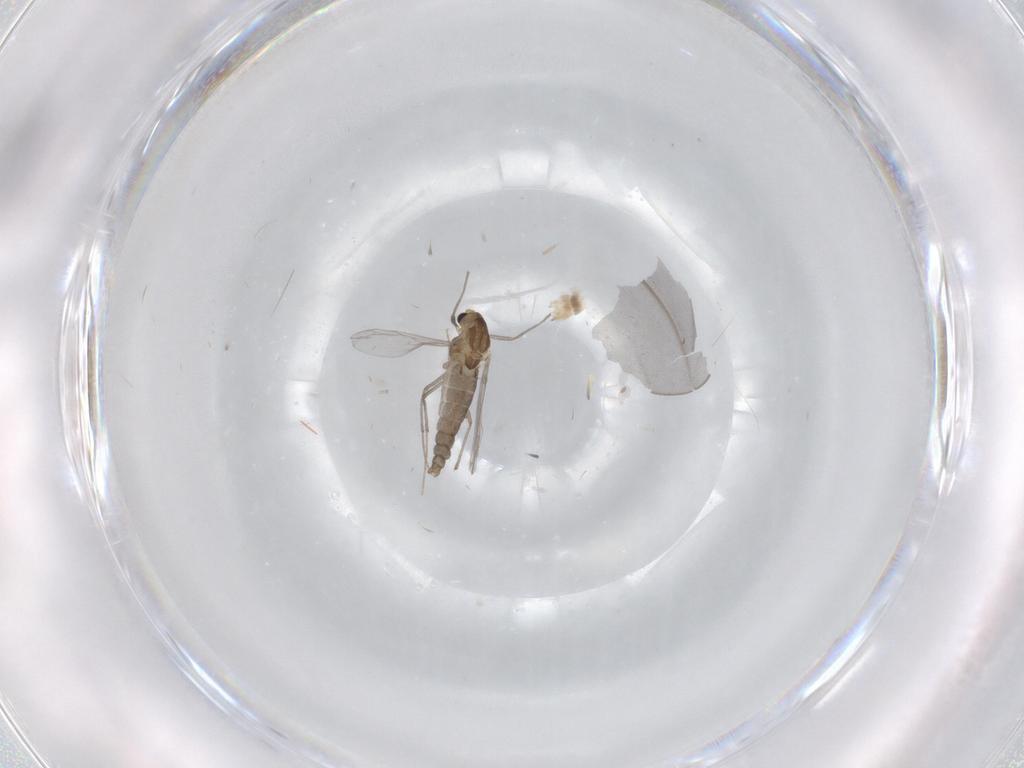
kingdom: Animalia
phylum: Arthropoda
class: Insecta
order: Diptera
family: Chironomidae
